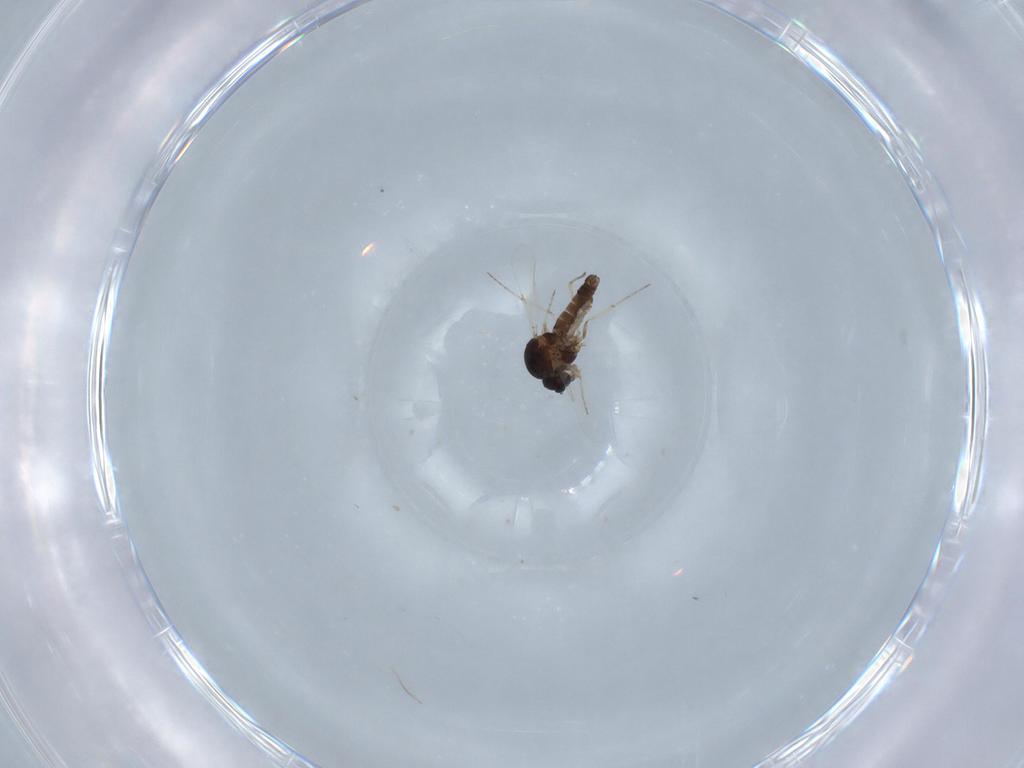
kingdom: Animalia
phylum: Arthropoda
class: Insecta
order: Diptera
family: Ceratopogonidae
